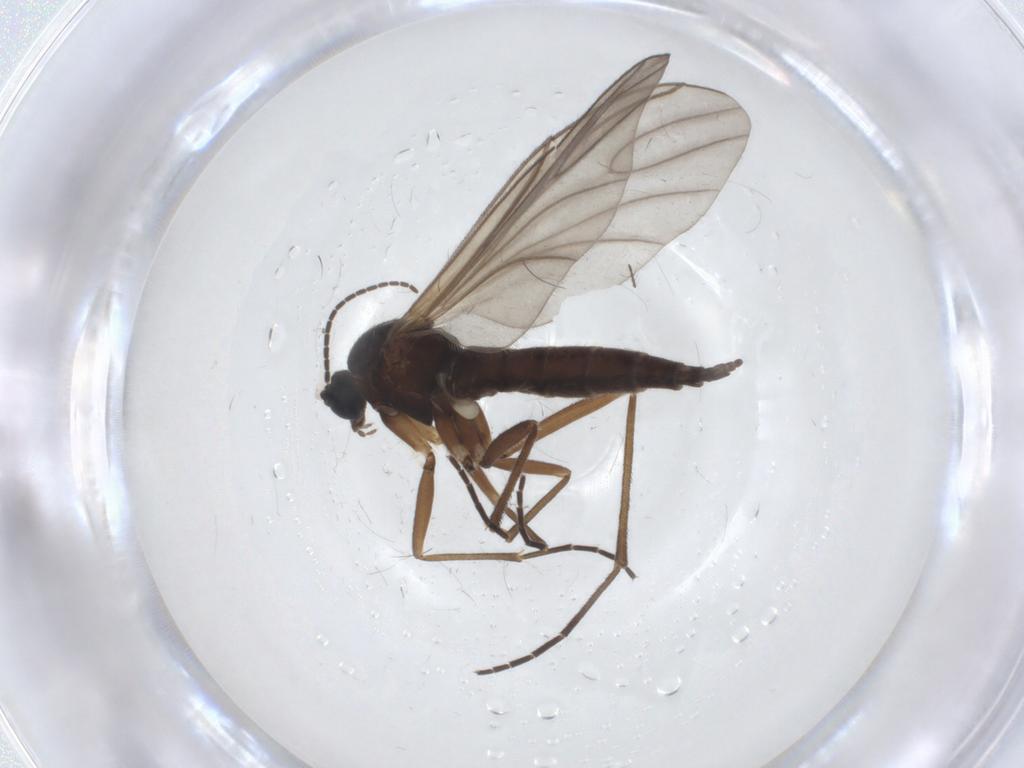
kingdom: Animalia
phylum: Arthropoda
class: Insecta
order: Diptera
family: Sciaridae
